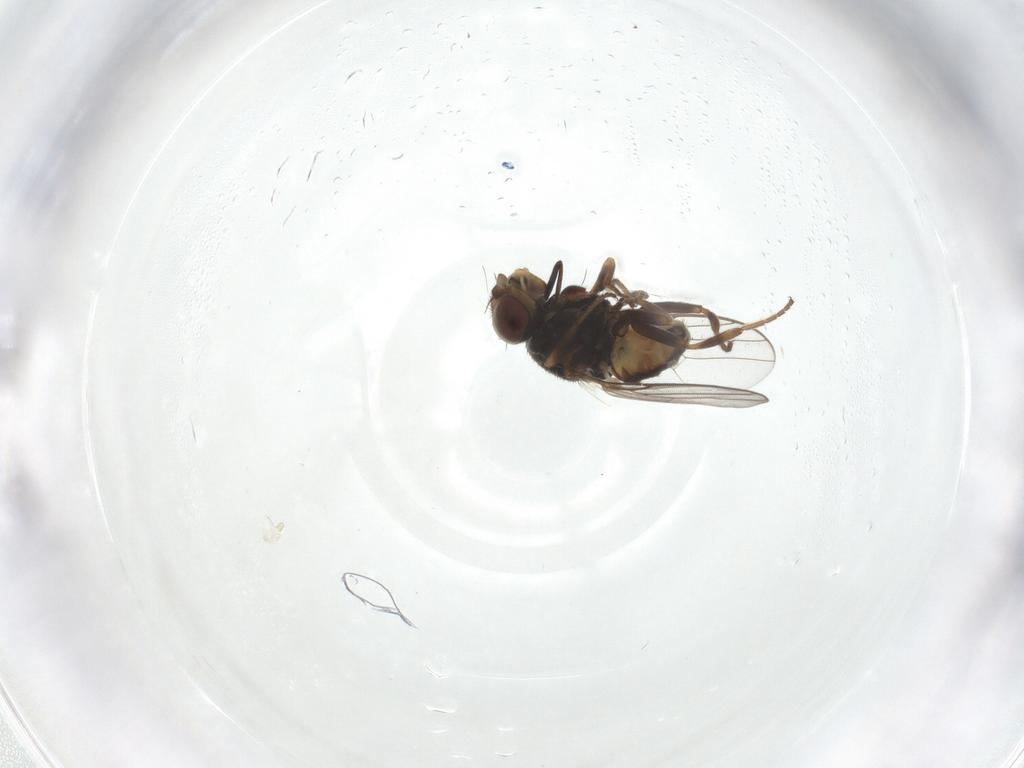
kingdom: Animalia
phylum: Arthropoda
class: Insecta
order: Diptera
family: Chloropidae
